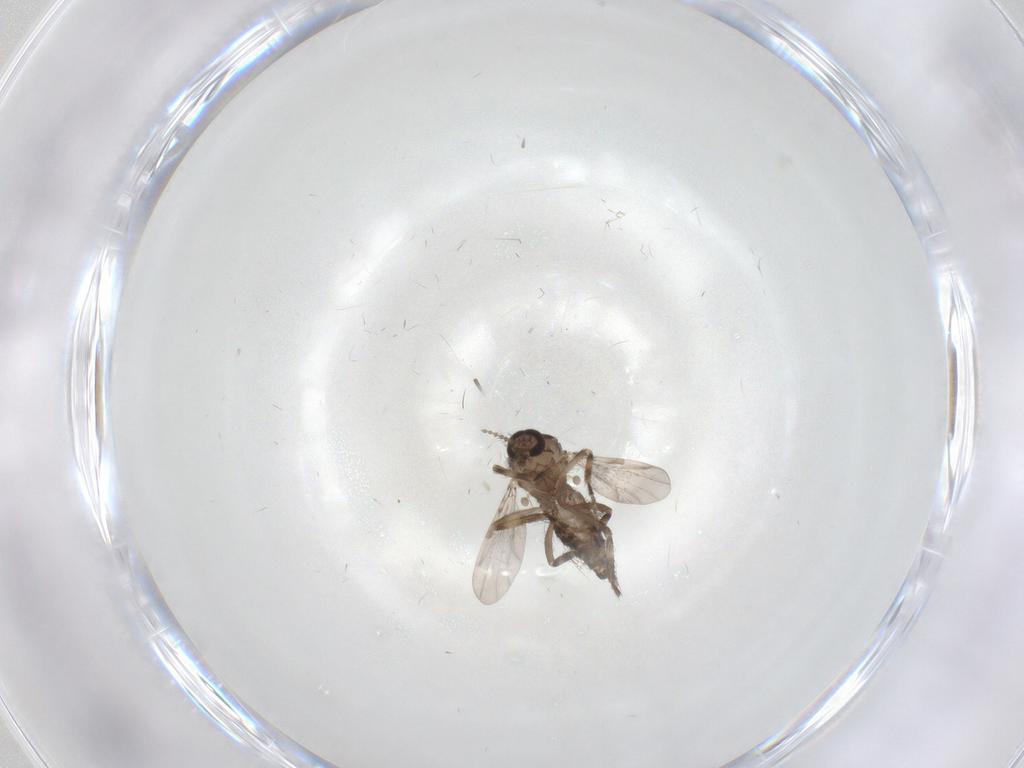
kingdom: Animalia
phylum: Arthropoda
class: Insecta
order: Diptera
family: Ceratopogonidae
